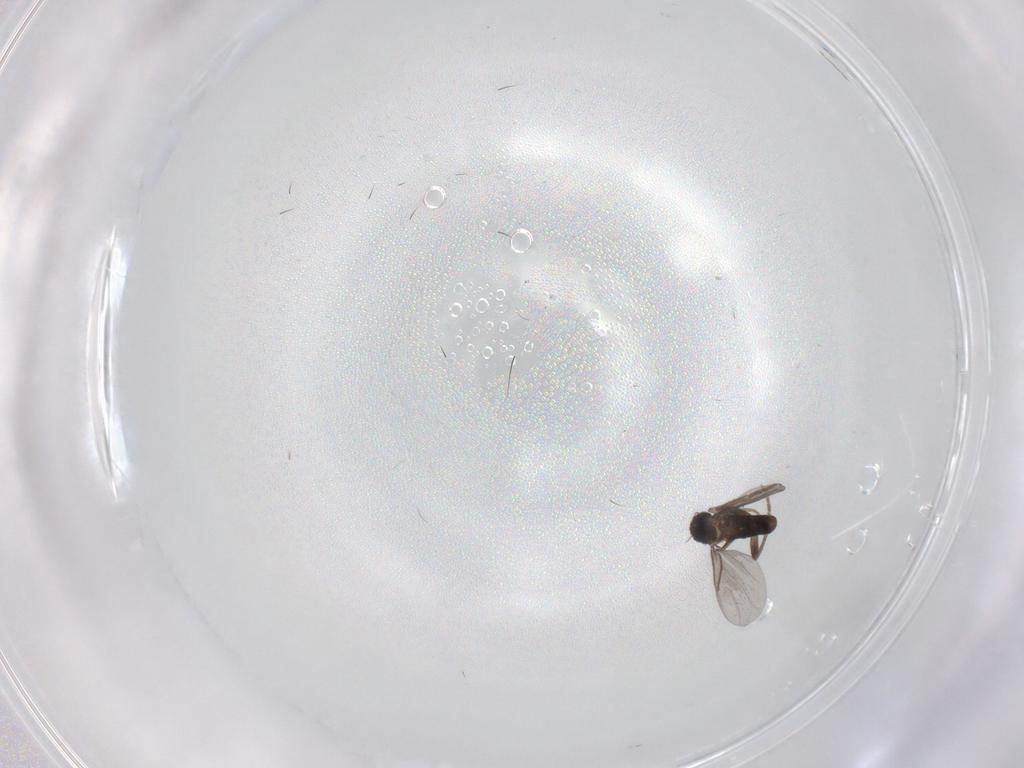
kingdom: Animalia
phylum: Arthropoda
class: Insecta
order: Diptera
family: Sciaridae
